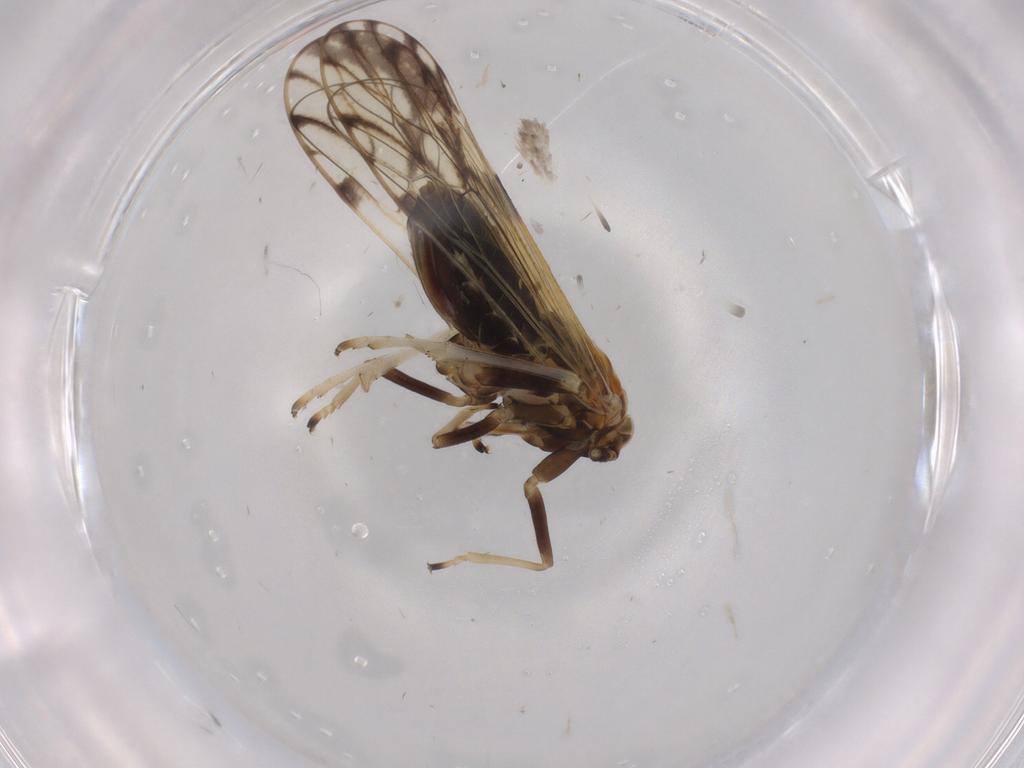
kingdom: Animalia
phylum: Arthropoda
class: Insecta
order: Hemiptera
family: Delphacidae
